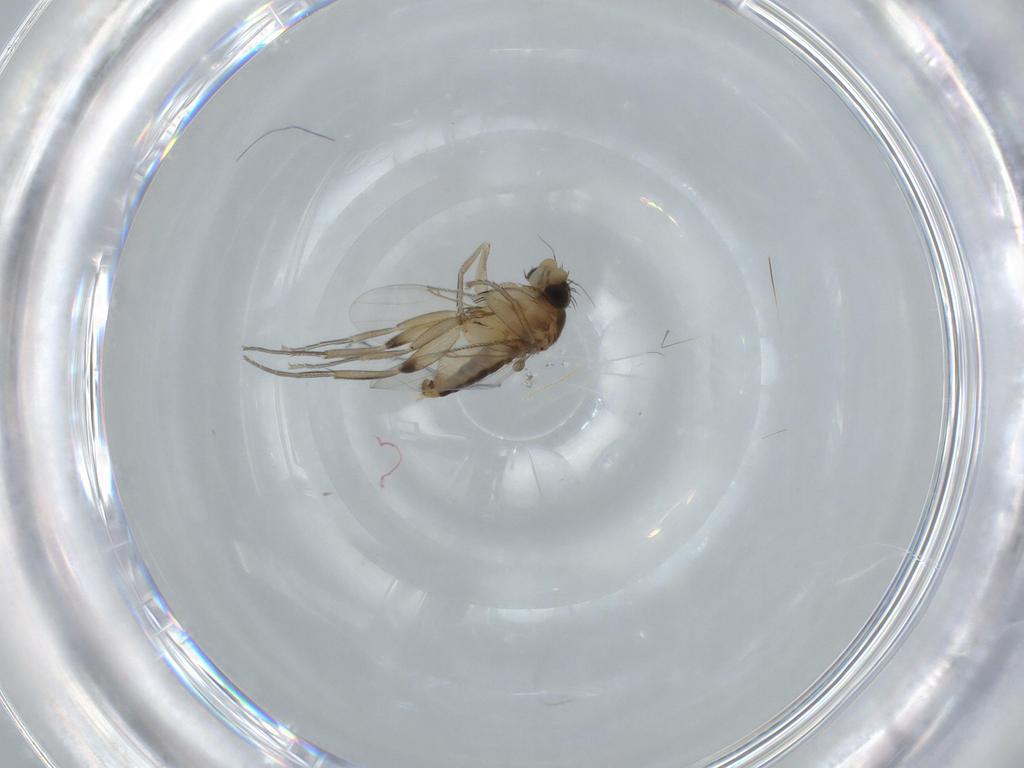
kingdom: Animalia
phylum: Arthropoda
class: Insecta
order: Diptera
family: Phoridae
